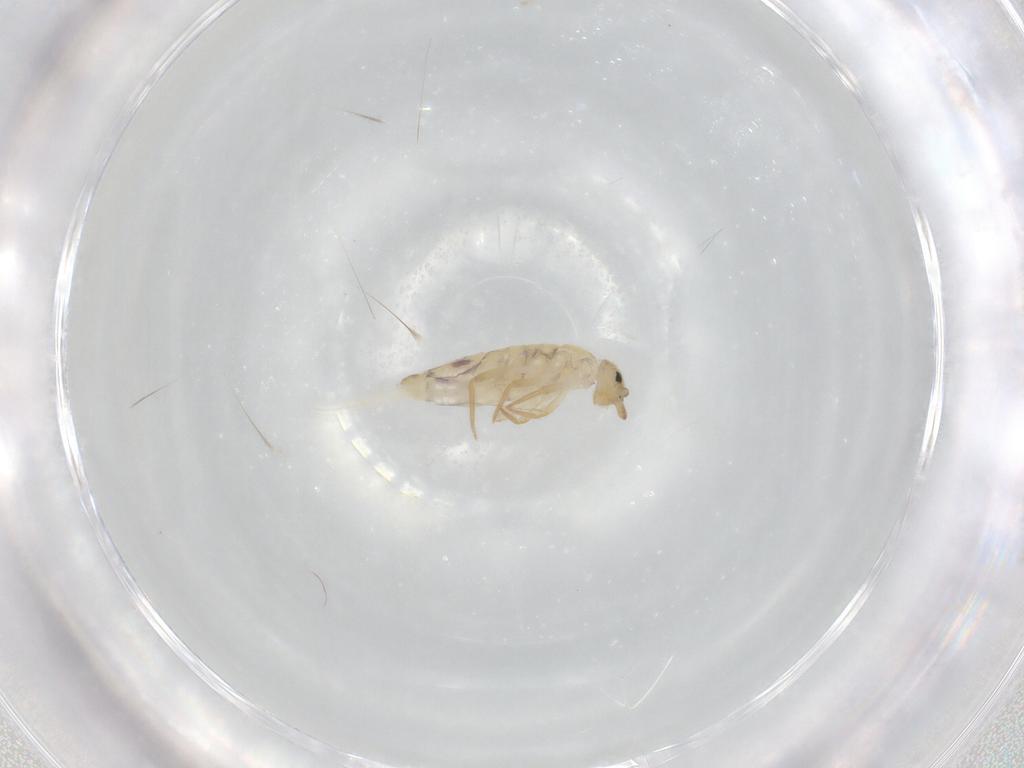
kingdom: Animalia
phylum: Arthropoda
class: Collembola
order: Entomobryomorpha
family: Entomobryidae
